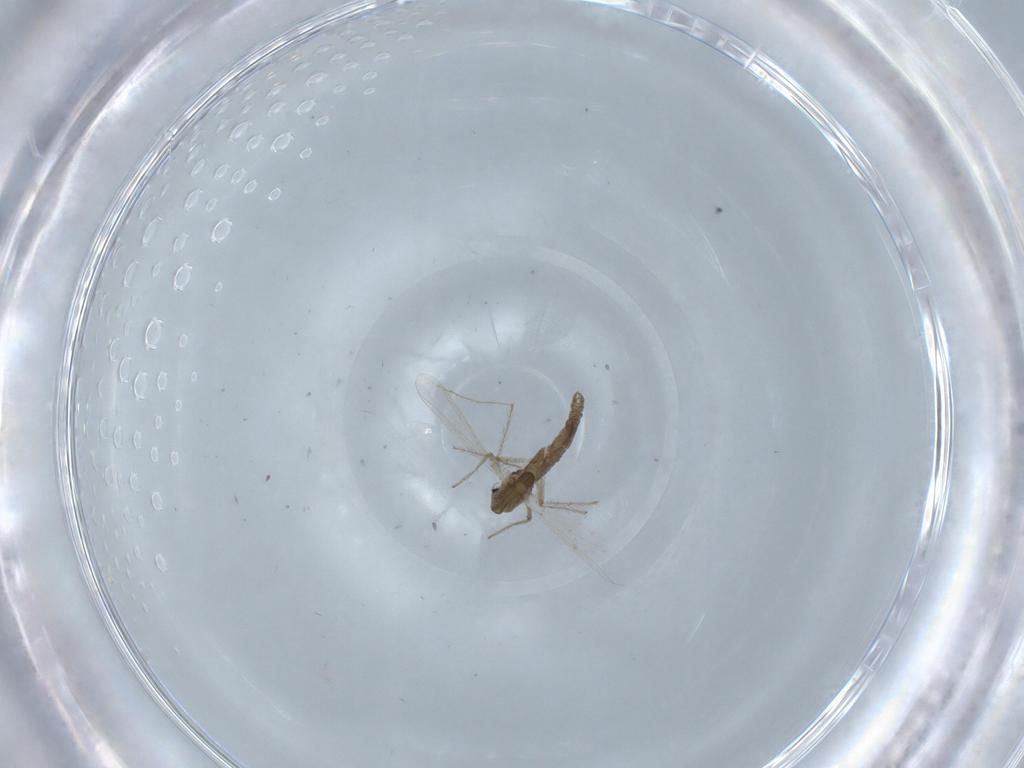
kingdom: Animalia
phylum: Arthropoda
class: Insecta
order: Diptera
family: Chironomidae
